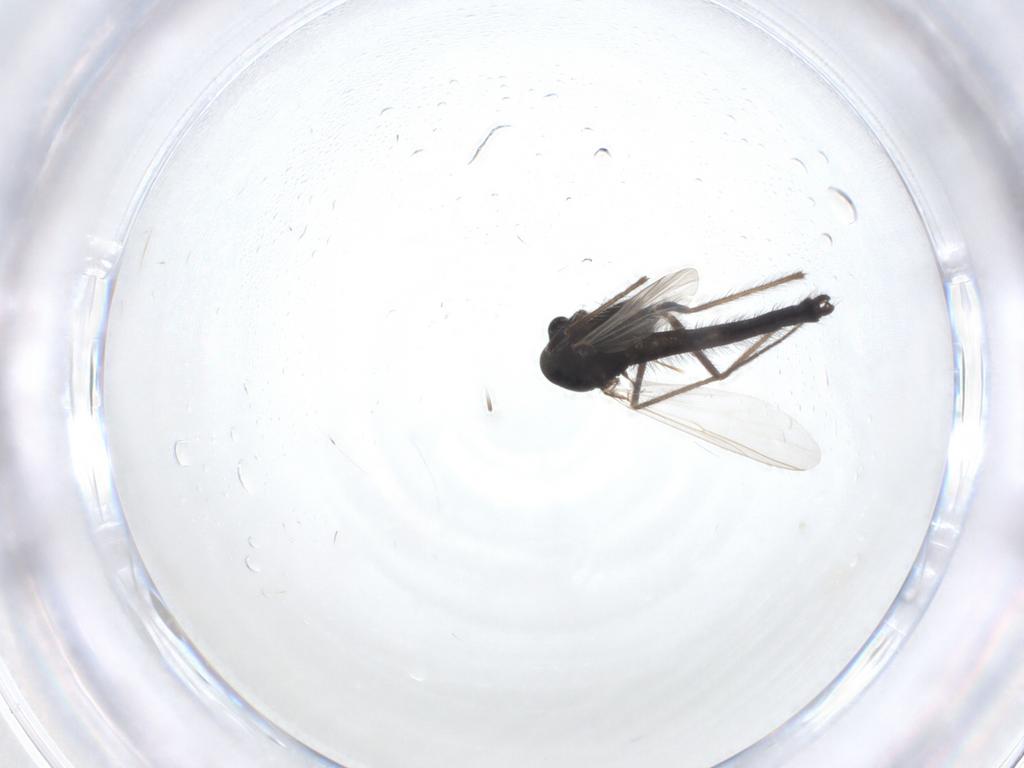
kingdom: Animalia
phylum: Arthropoda
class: Insecta
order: Diptera
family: Chironomidae
